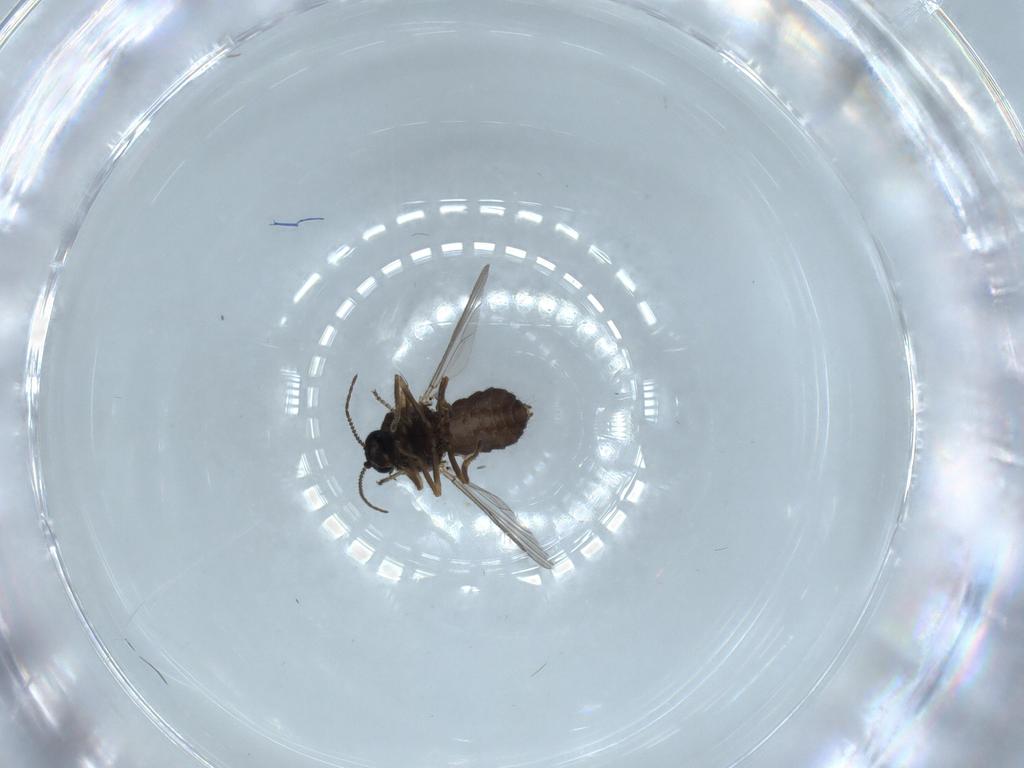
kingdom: Animalia
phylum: Arthropoda
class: Insecta
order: Diptera
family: Ceratopogonidae
